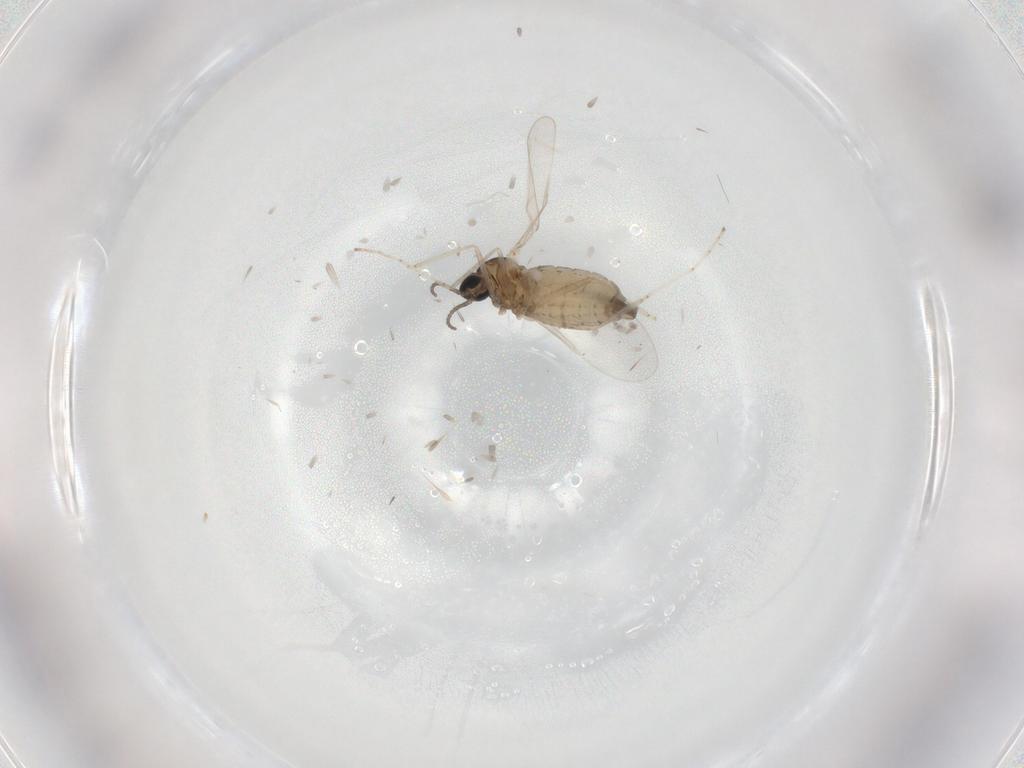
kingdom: Animalia
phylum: Arthropoda
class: Insecta
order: Diptera
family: Cecidomyiidae
